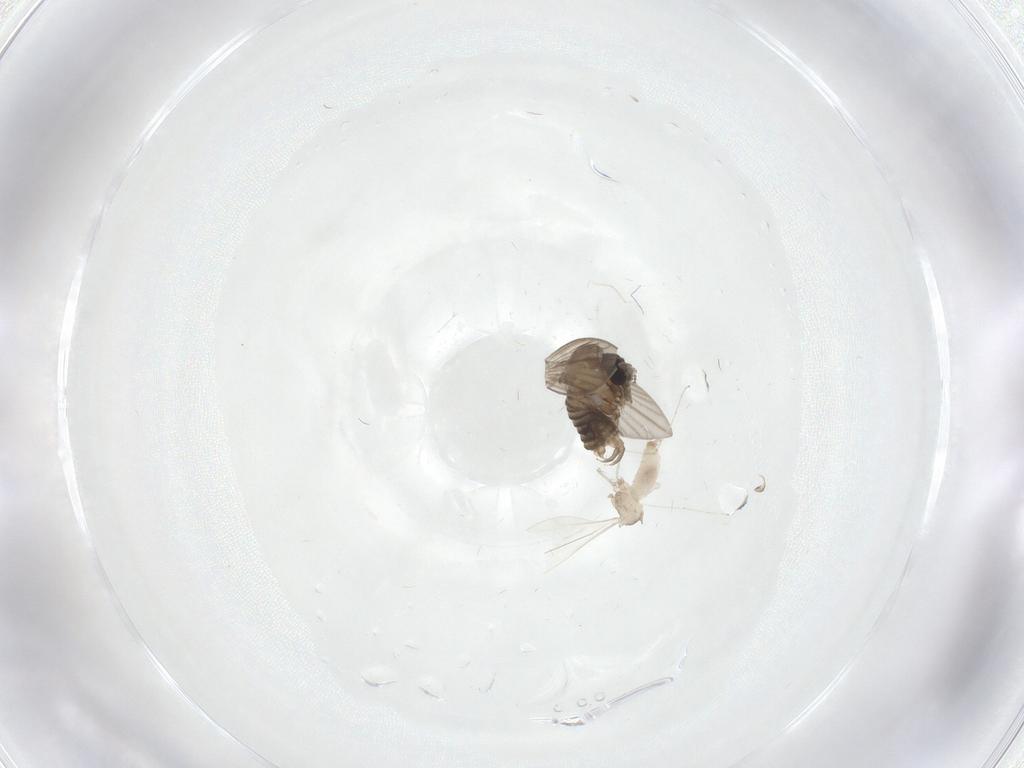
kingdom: Animalia
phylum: Arthropoda
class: Insecta
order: Diptera
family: Cecidomyiidae
